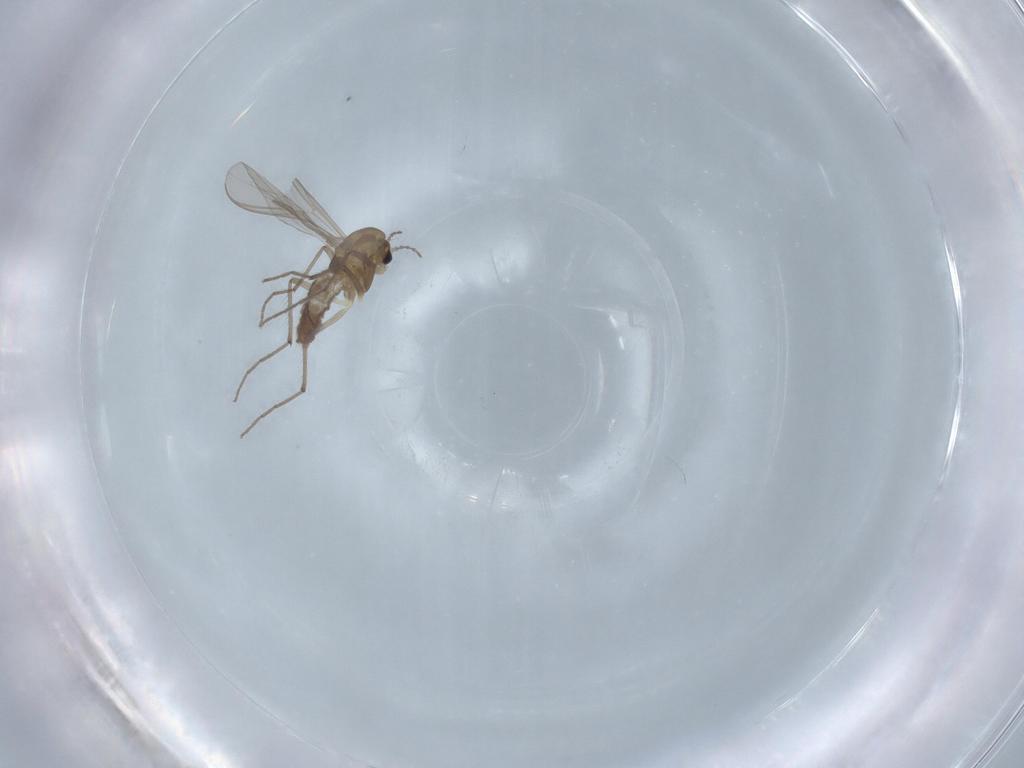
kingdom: Animalia
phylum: Arthropoda
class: Insecta
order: Diptera
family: Chironomidae
